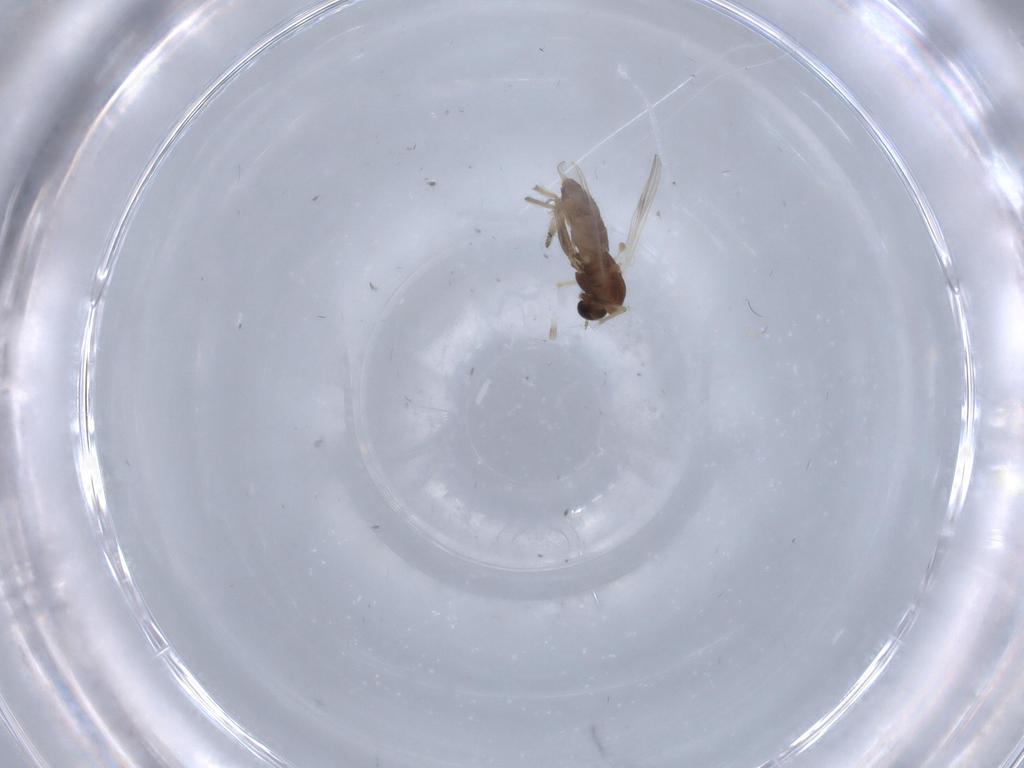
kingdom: Animalia
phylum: Arthropoda
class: Insecta
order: Diptera
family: Chironomidae
